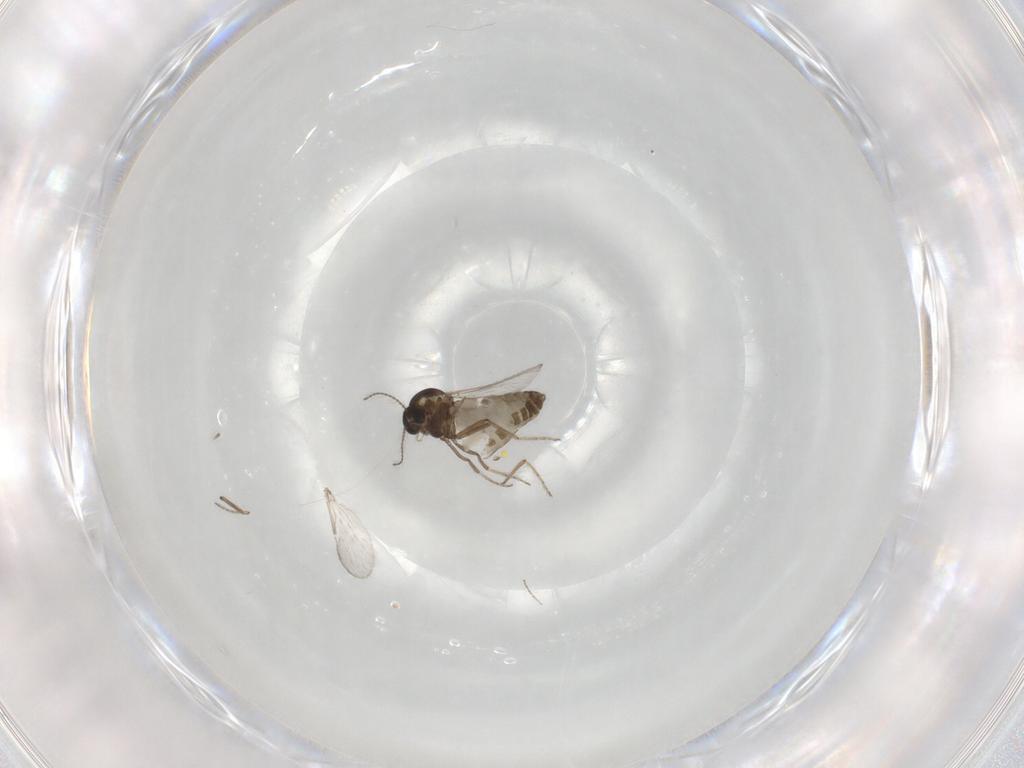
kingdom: Animalia
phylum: Arthropoda
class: Insecta
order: Diptera
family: Ceratopogonidae
